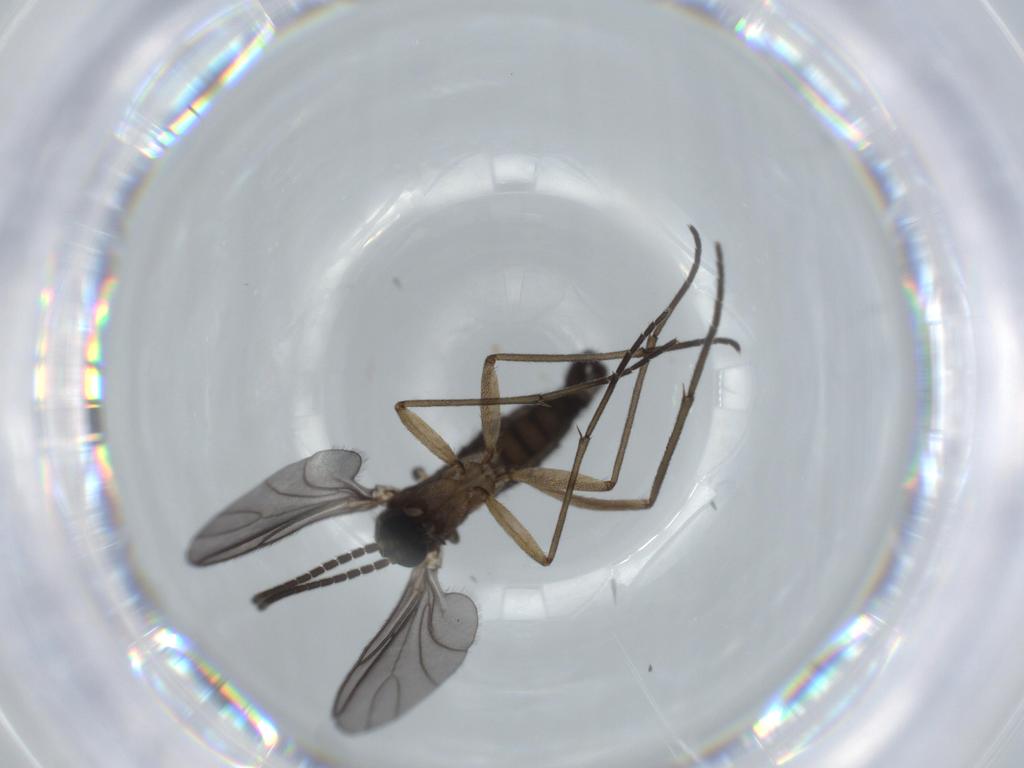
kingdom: Animalia
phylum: Arthropoda
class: Insecta
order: Diptera
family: Sciaridae
